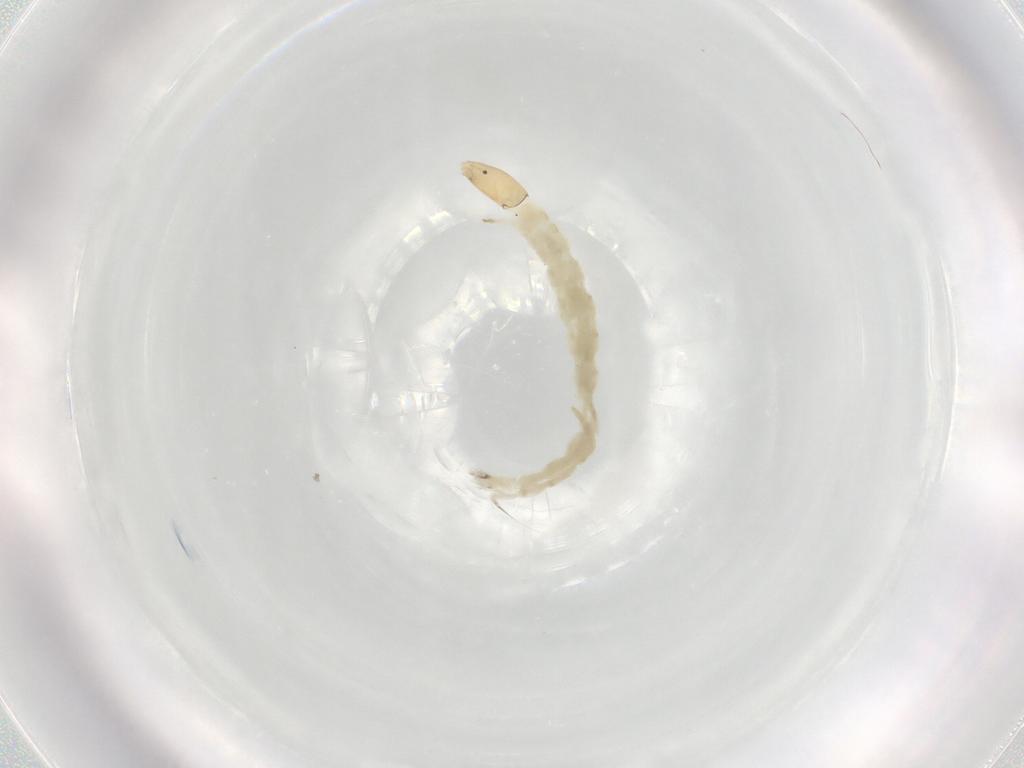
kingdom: Animalia
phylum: Arthropoda
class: Insecta
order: Diptera
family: Chironomidae
